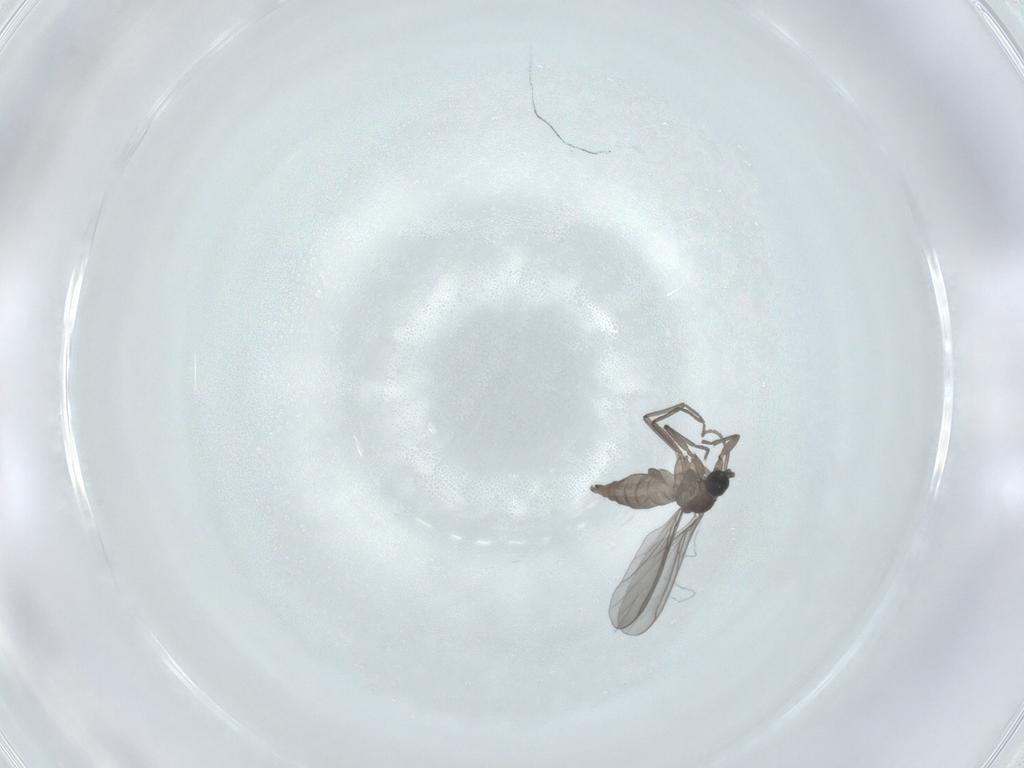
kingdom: Animalia
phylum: Arthropoda
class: Insecta
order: Diptera
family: Sciaridae
